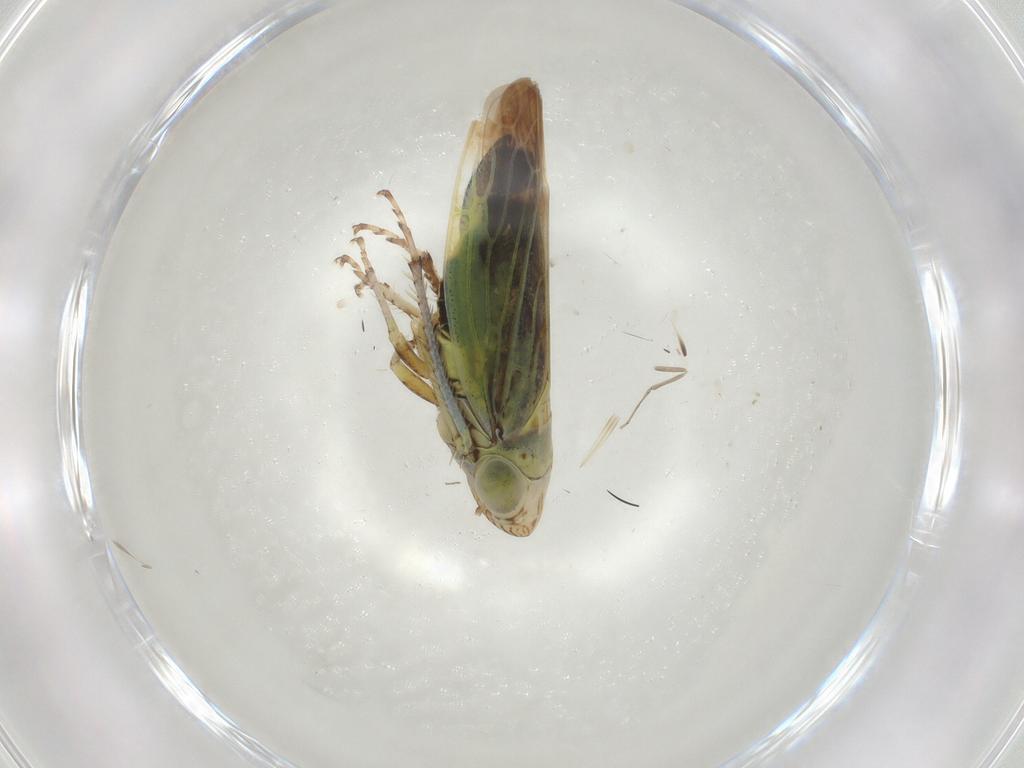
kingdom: Animalia
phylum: Arthropoda
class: Insecta
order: Hemiptera
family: Cicadellidae
